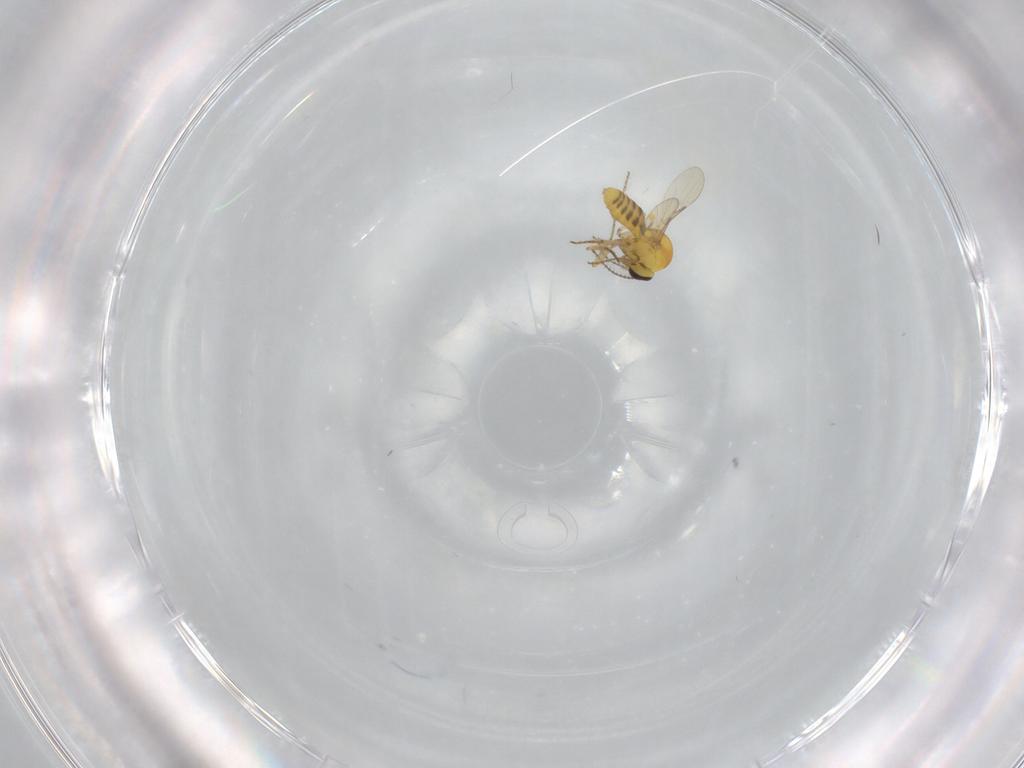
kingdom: Animalia
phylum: Arthropoda
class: Insecta
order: Diptera
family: Ceratopogonidae
